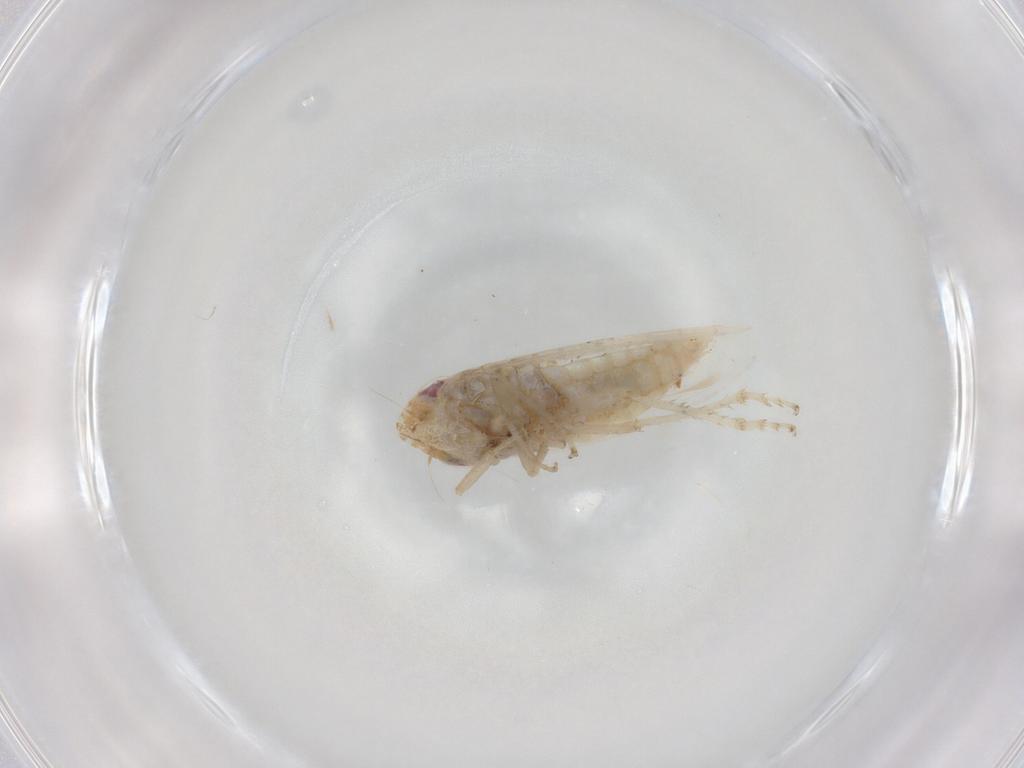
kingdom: Animalia
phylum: Arthropoda
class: Insecta
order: Hemiptera
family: Cicadellidae
